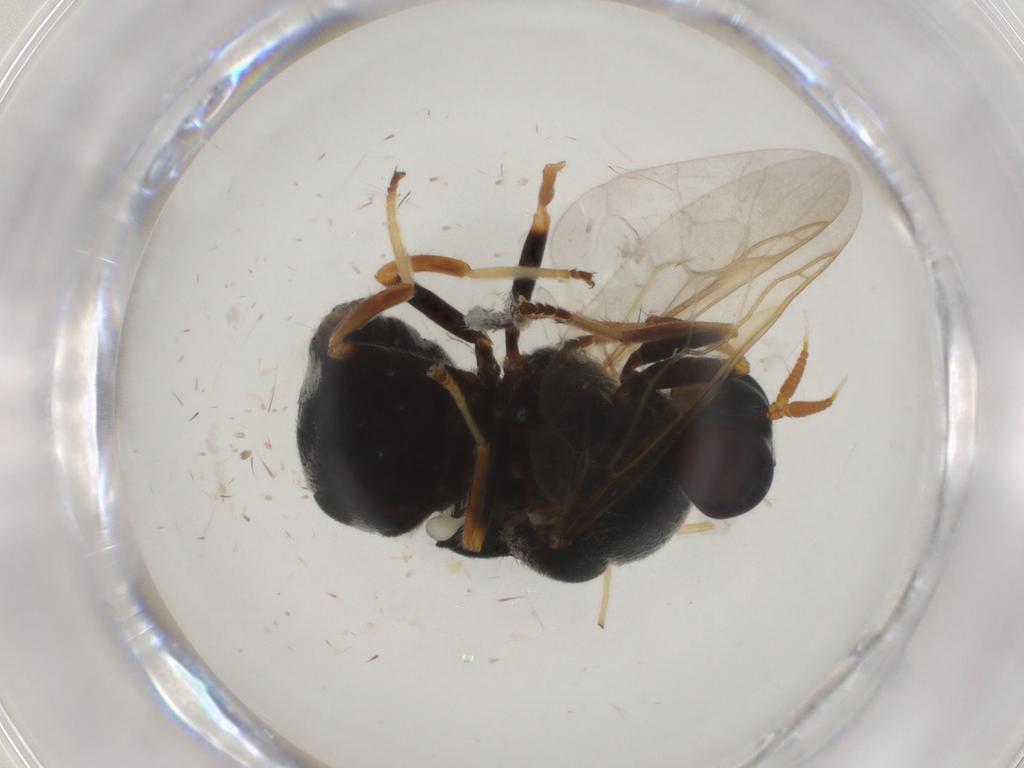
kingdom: Animalia
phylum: Arthropoda
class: Insecta
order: Diptera
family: Stratiomyidae
